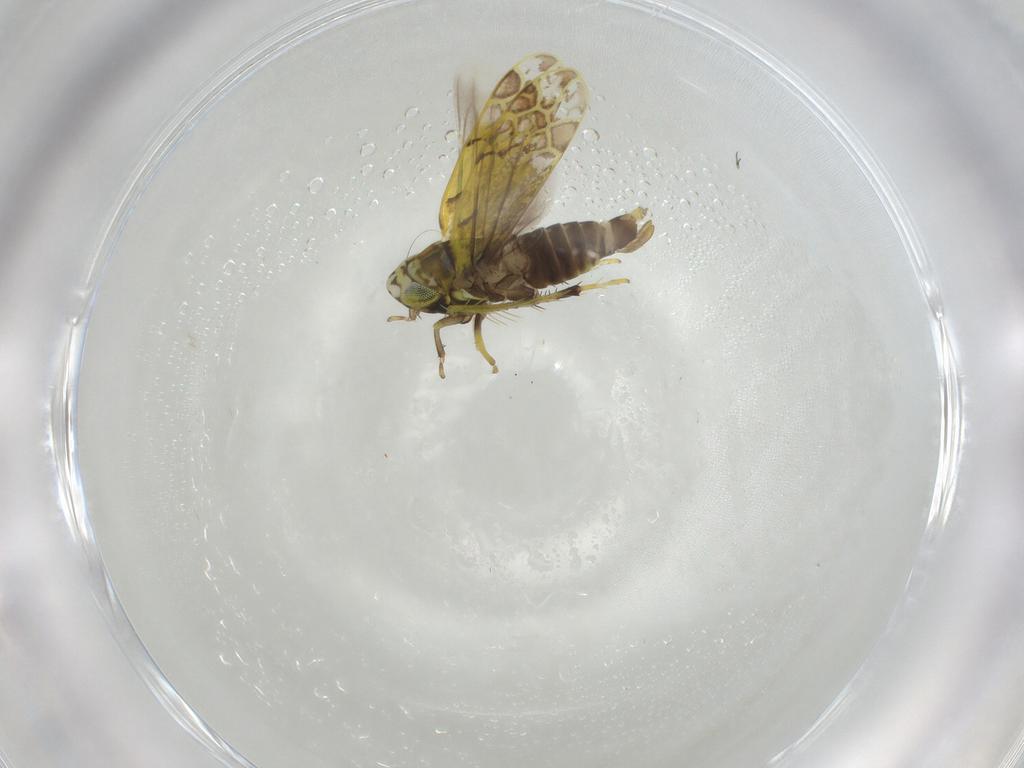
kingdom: Animalia
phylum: Arthropoda
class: Insecta
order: Hemiptera
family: Cicadellidae
